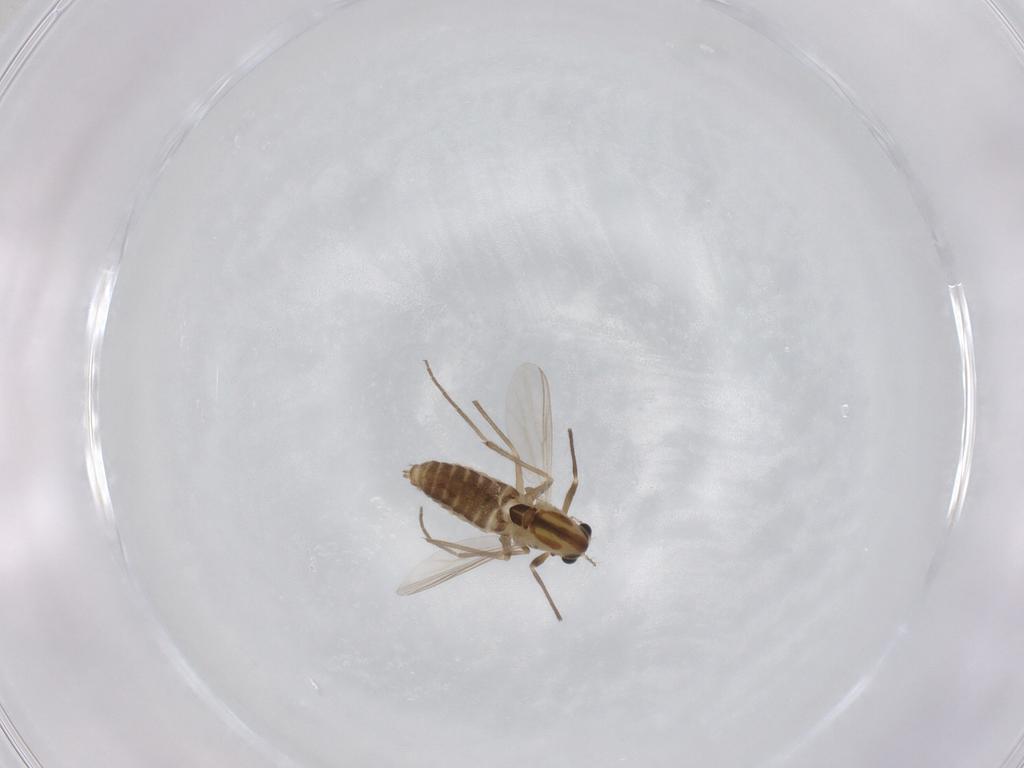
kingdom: Animalia
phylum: Arthropoda
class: Insecta
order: Diptera
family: Chironomidae
